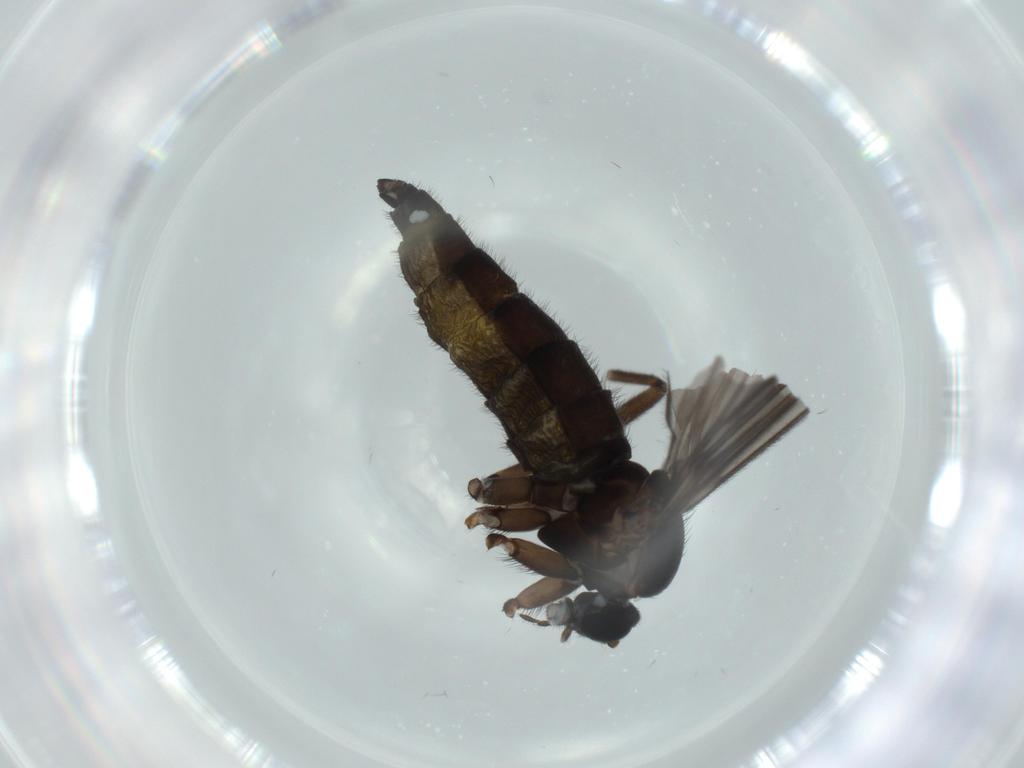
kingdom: Animalia
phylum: Arthropoda
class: Insecta
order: Diptera
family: Sciaridae
